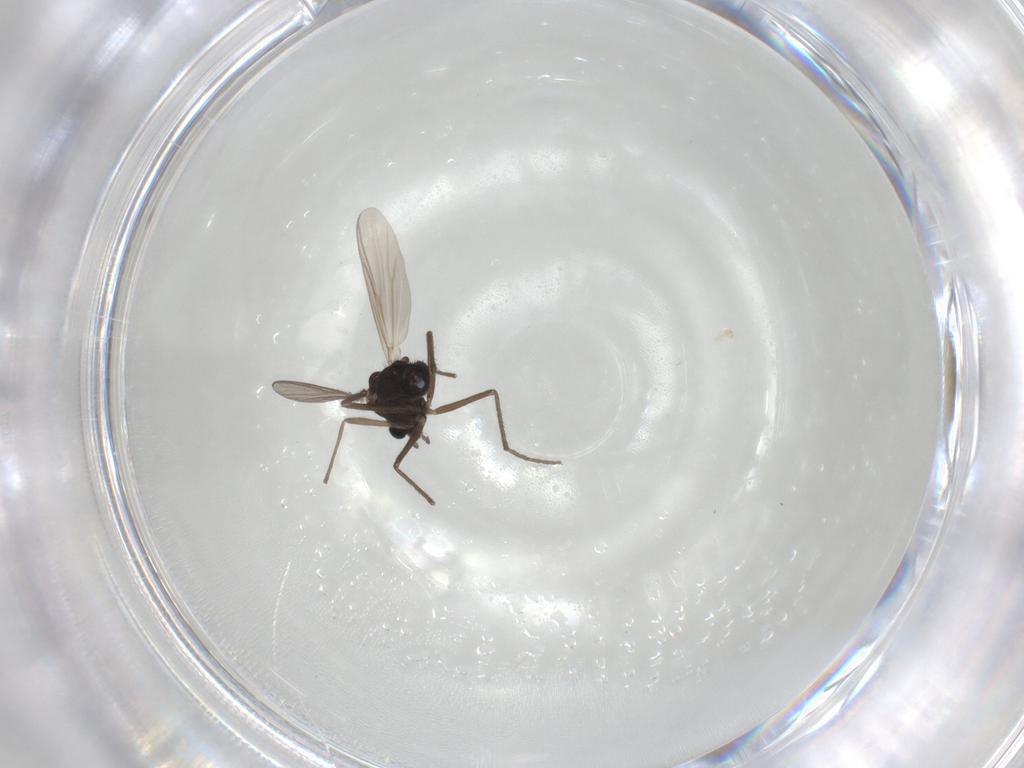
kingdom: Animalia
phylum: Arthropoda
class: Insecta
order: Diptera
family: Chironomidae
